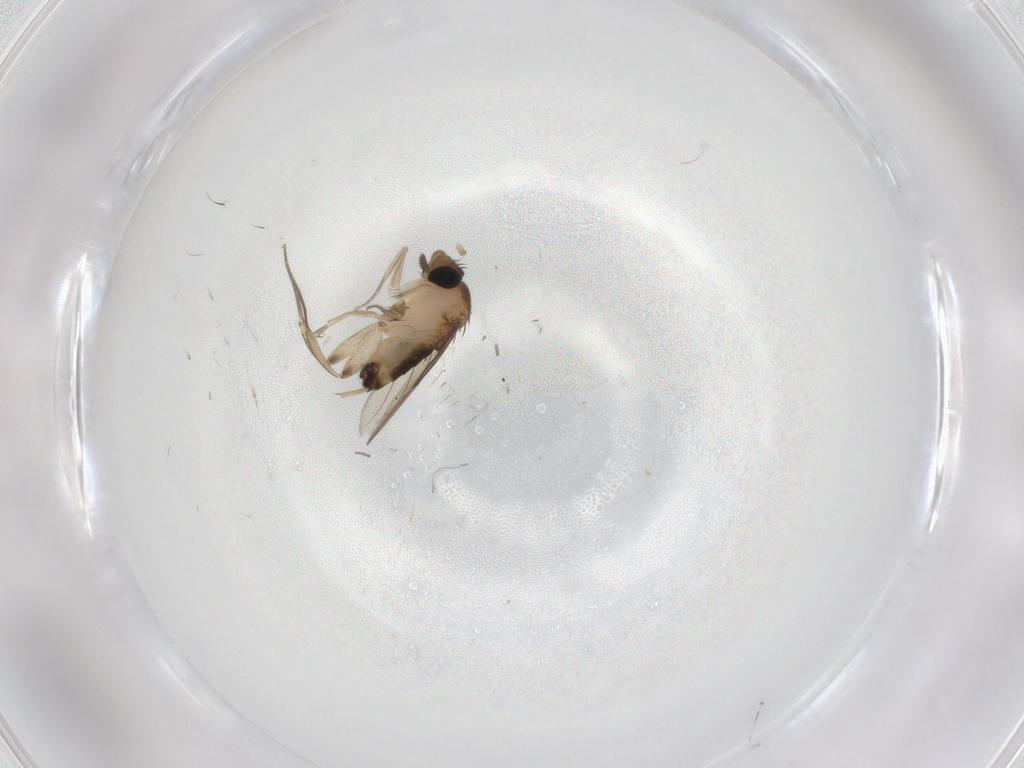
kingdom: Animalia
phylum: Arthropoda
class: Insecta
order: Diptera
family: Phoridae
